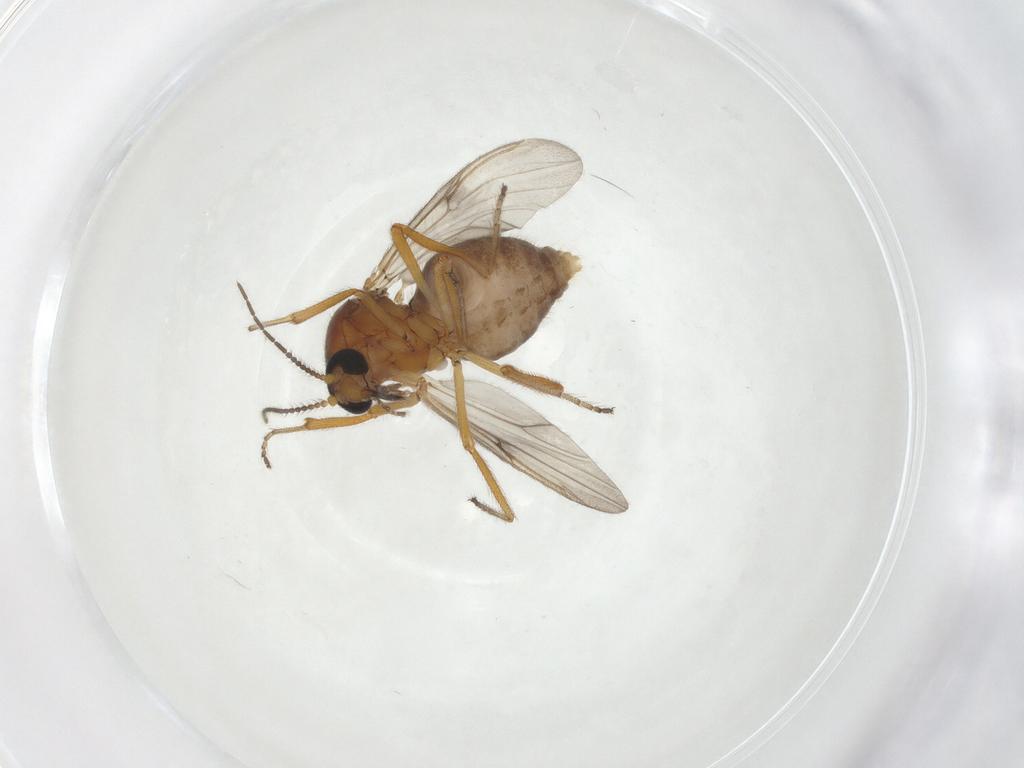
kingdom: Animalia
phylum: Arthropoda
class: Insecta
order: Diptera
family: Ceratopogonidae
